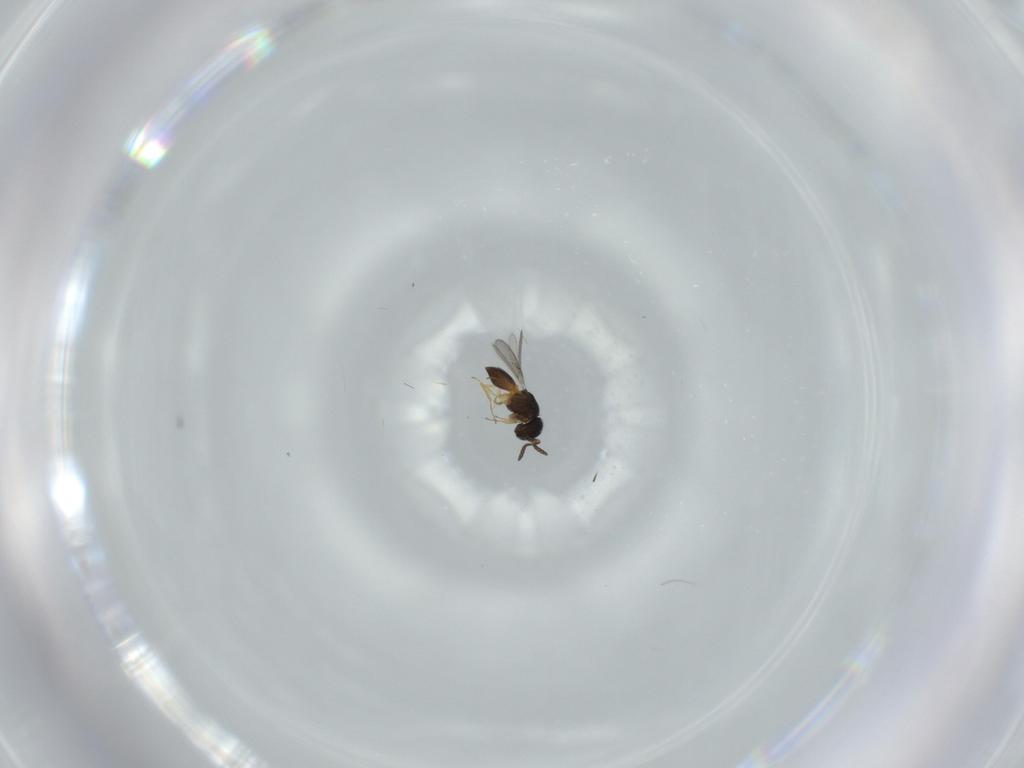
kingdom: Animalia
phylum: Arthropoda
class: Insecta
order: Hymenoptera
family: Scelionidae
